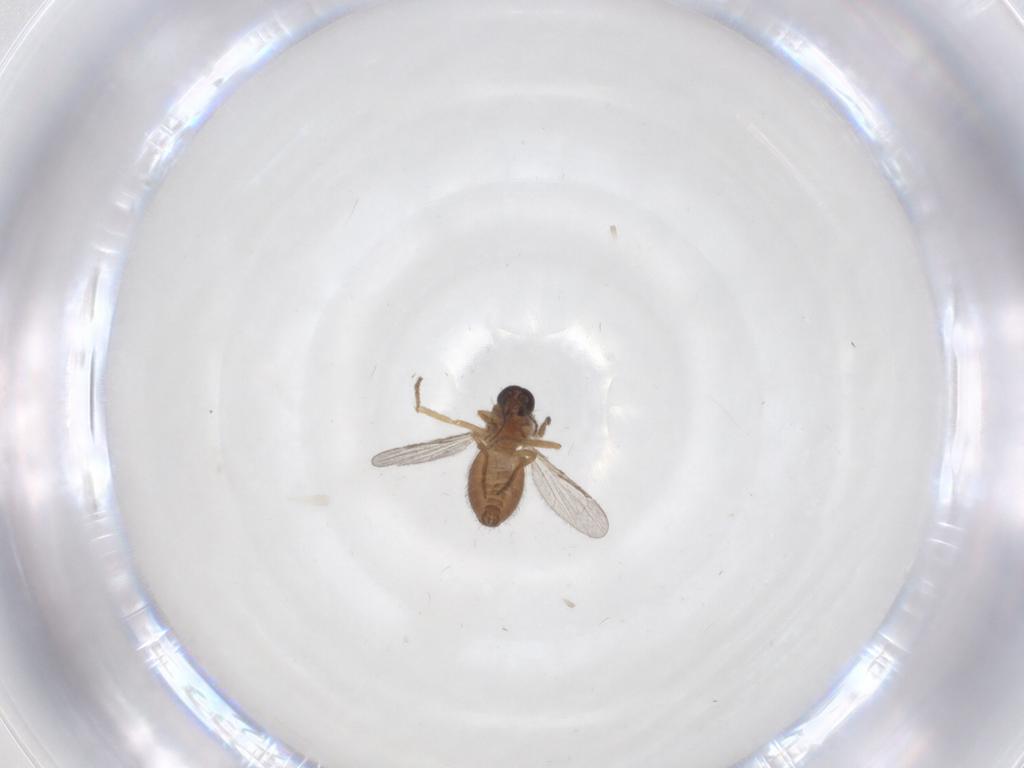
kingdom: Animalia
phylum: Arthropoda
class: Insecta
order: Diptera
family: Ceratopogonidae
